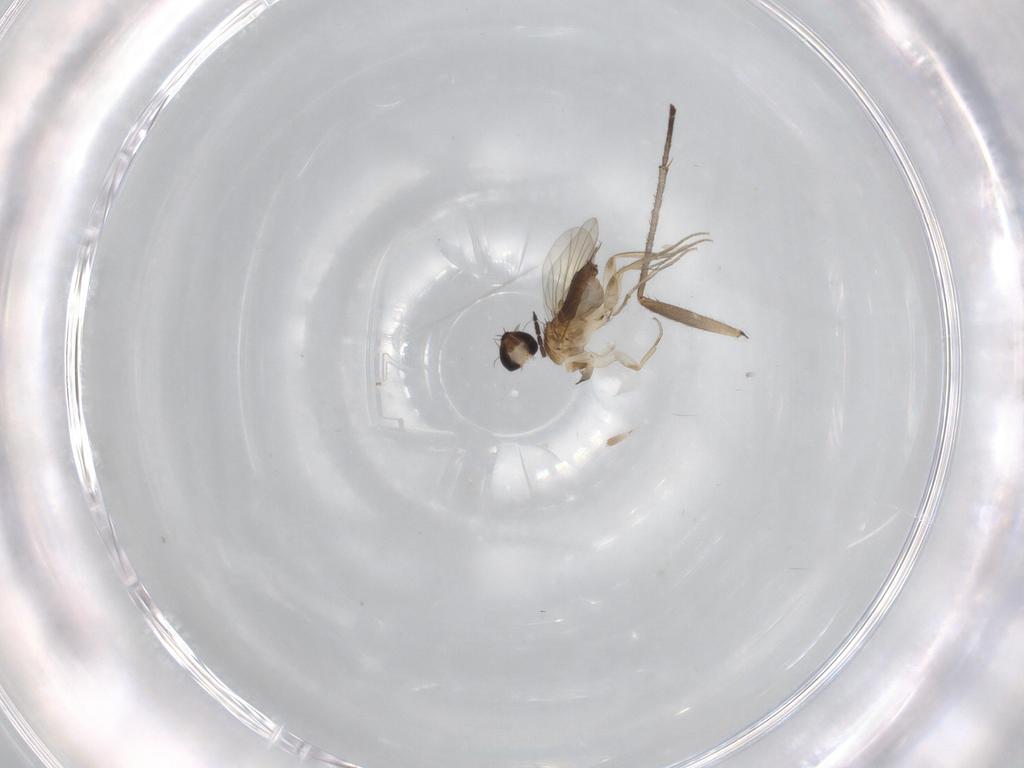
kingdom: Animalia
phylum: Arthropoda
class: Insecta
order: Diptera
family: Phoridae
